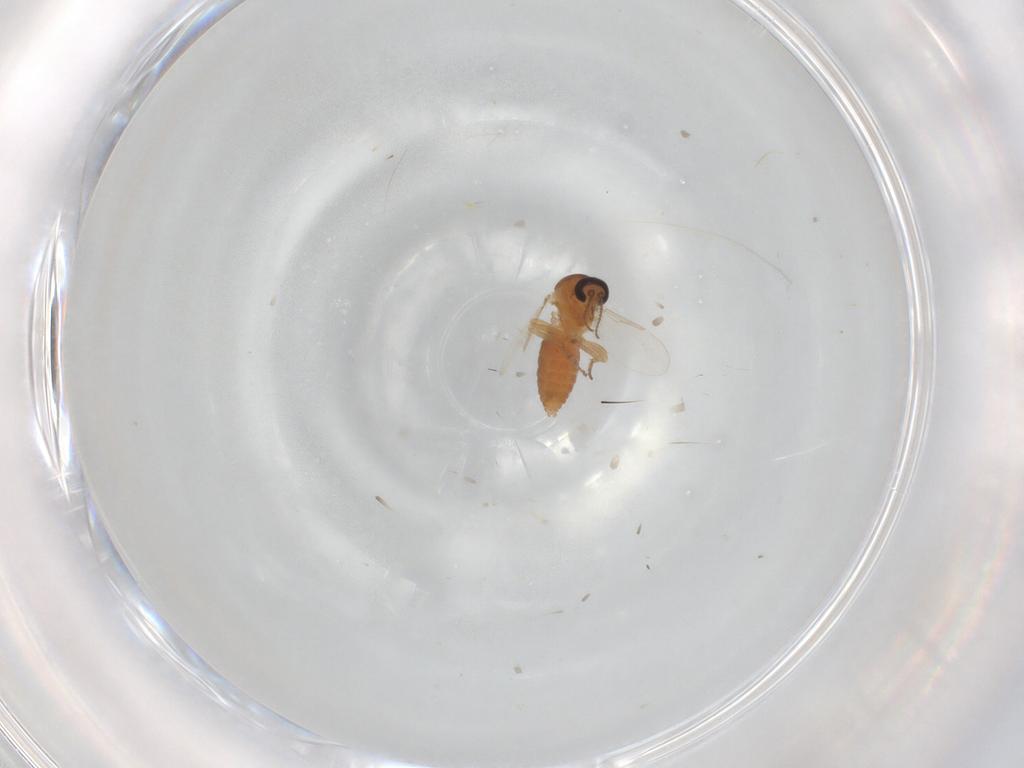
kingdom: Animalia
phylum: Arthropoda
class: Insecta
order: Diptera
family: Ceratopogonidae
